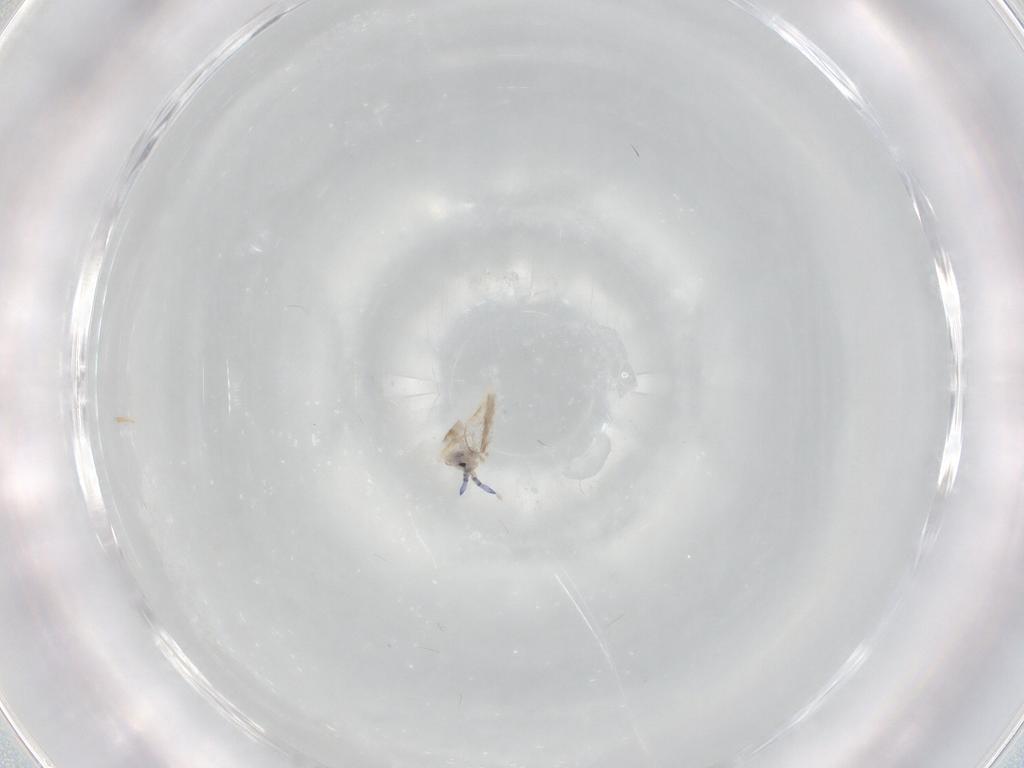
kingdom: Animalia
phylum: Arthropoda
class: Collembola
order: Entomobryomorpha
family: Entomobryidae
